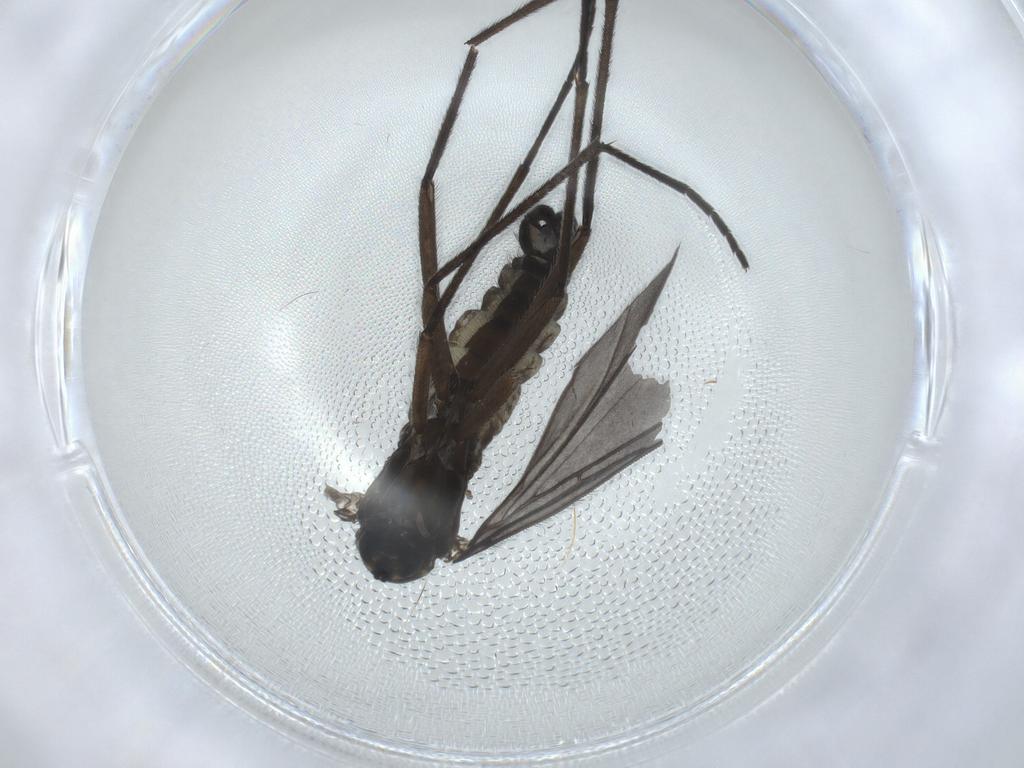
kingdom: Animalia
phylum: Arthropoda
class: Insecta
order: Diptera
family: Sciaridae
